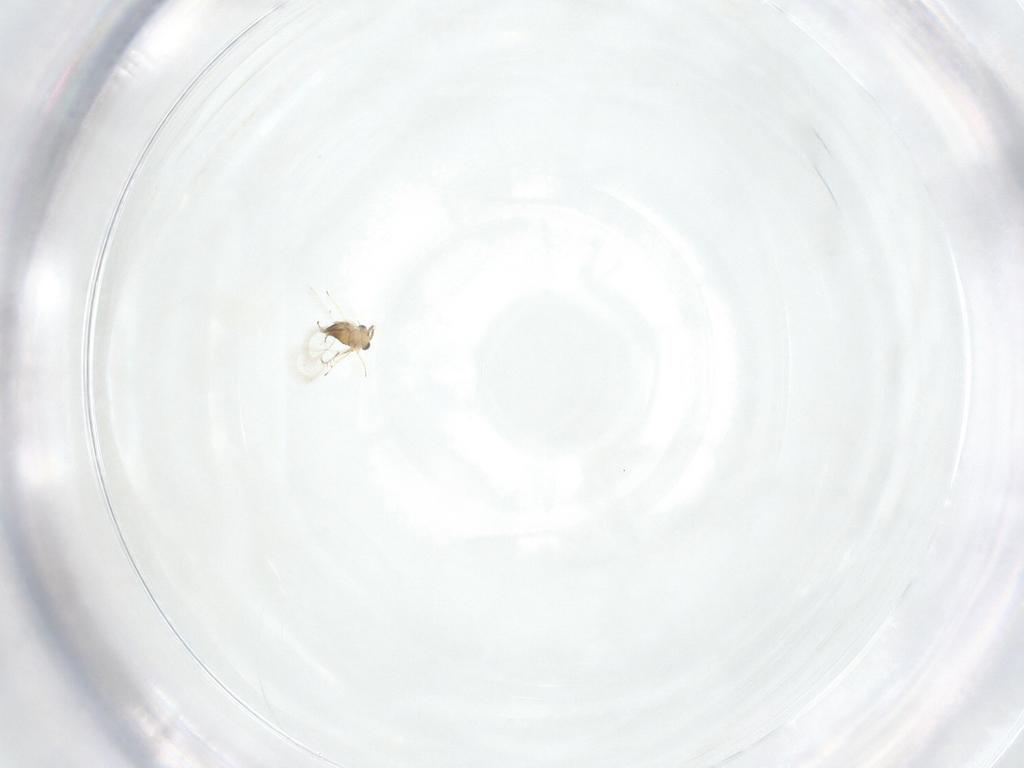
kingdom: Animalia
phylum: Arthropoda
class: Insecta
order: Hymenoptera
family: Trichogrammatidae
